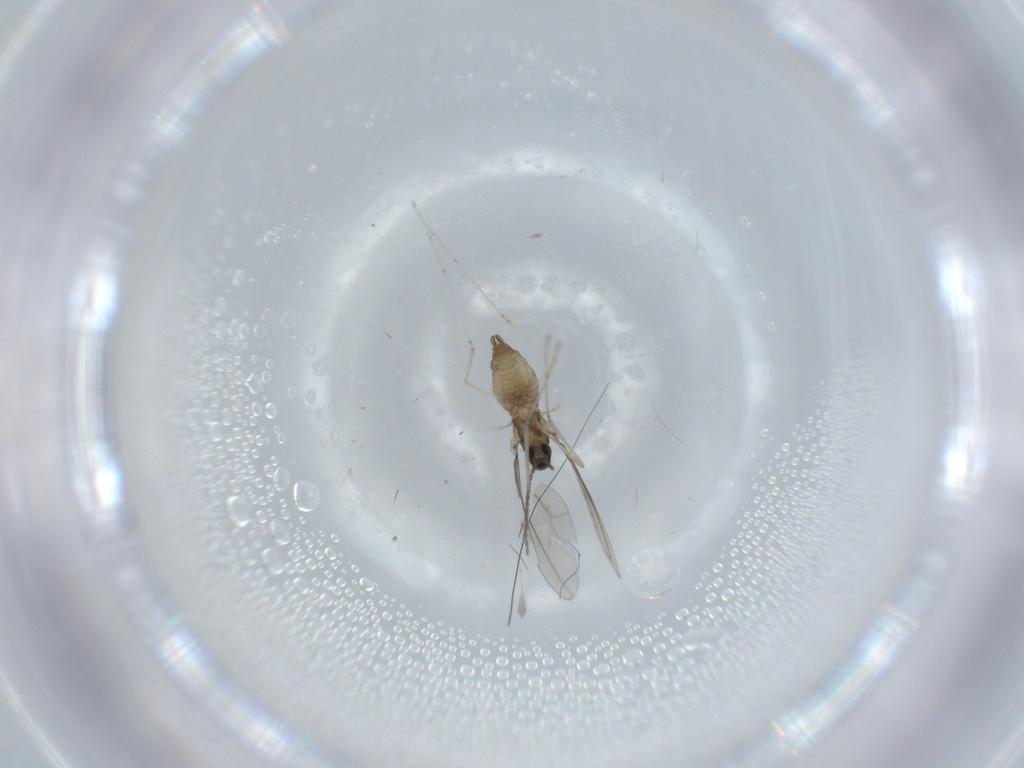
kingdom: Animalia
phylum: Arthropoda
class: Insecta
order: Diptera
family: Cecidomyiidae
